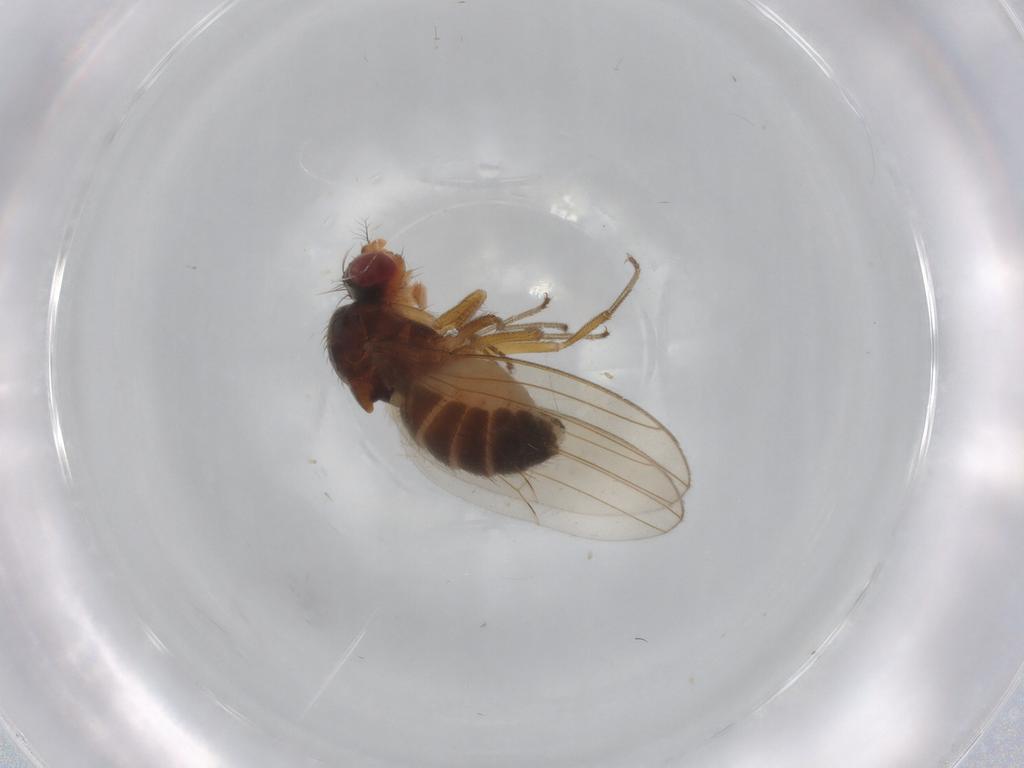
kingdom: Animalia
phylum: Arthropoda
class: Insecta
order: Diptera
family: Drosophilidae
